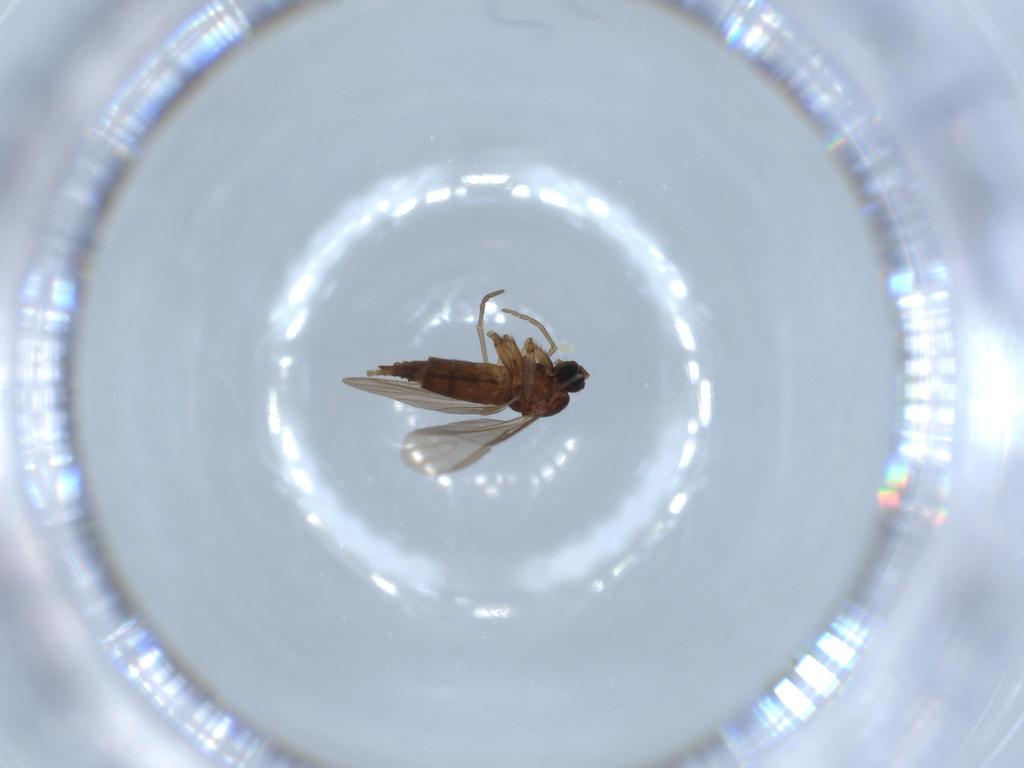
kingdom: Animalia
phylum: Arthropoda
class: Insecta
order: Diptera
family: Sciaridae
